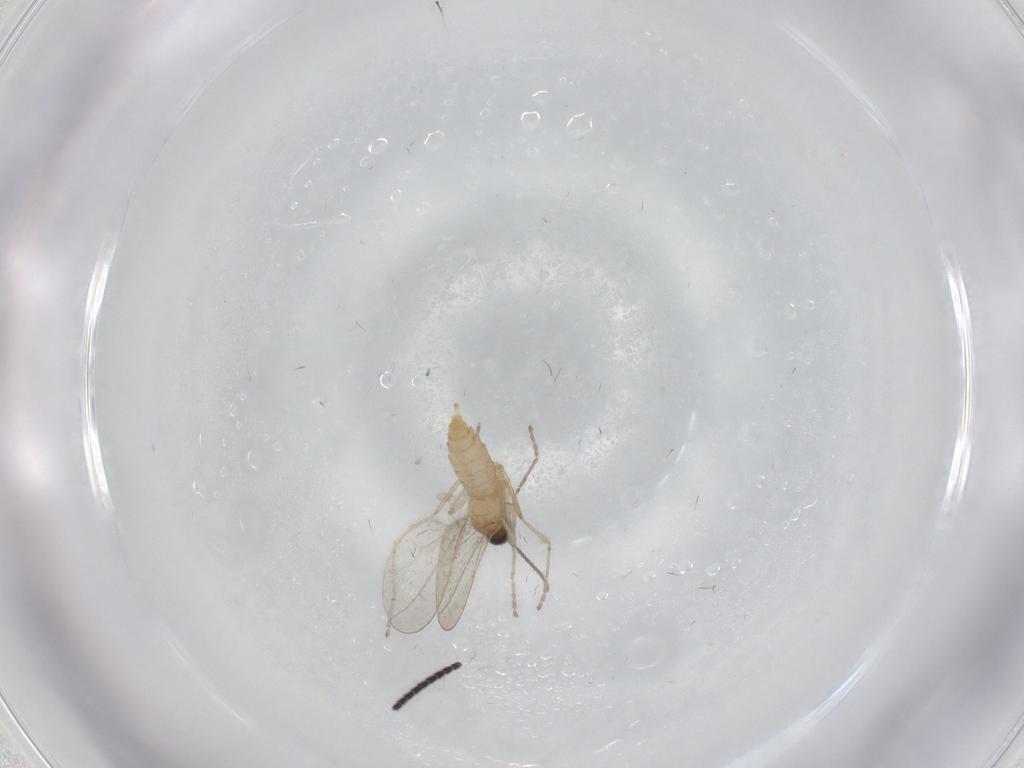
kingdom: Animalia
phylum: Arthropoda
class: Insecta
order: Diptera
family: Cecidomyiidae
